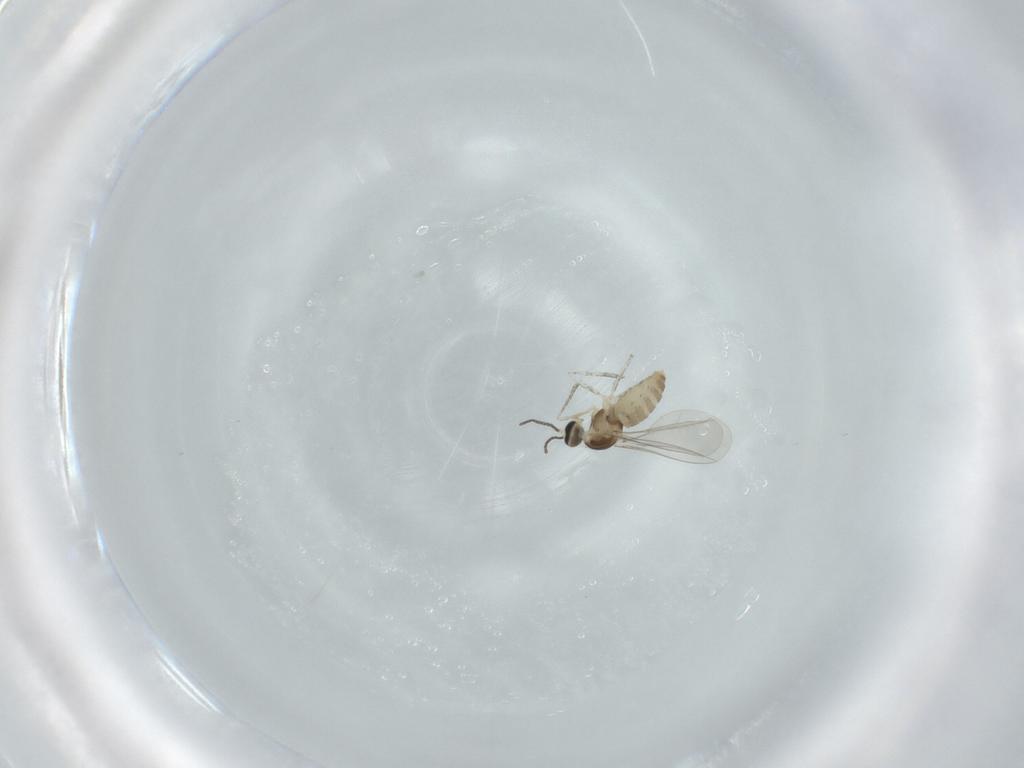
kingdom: Animalia
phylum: Arthropoda
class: Insecta
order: Diptera
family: Cecidomyiidae
